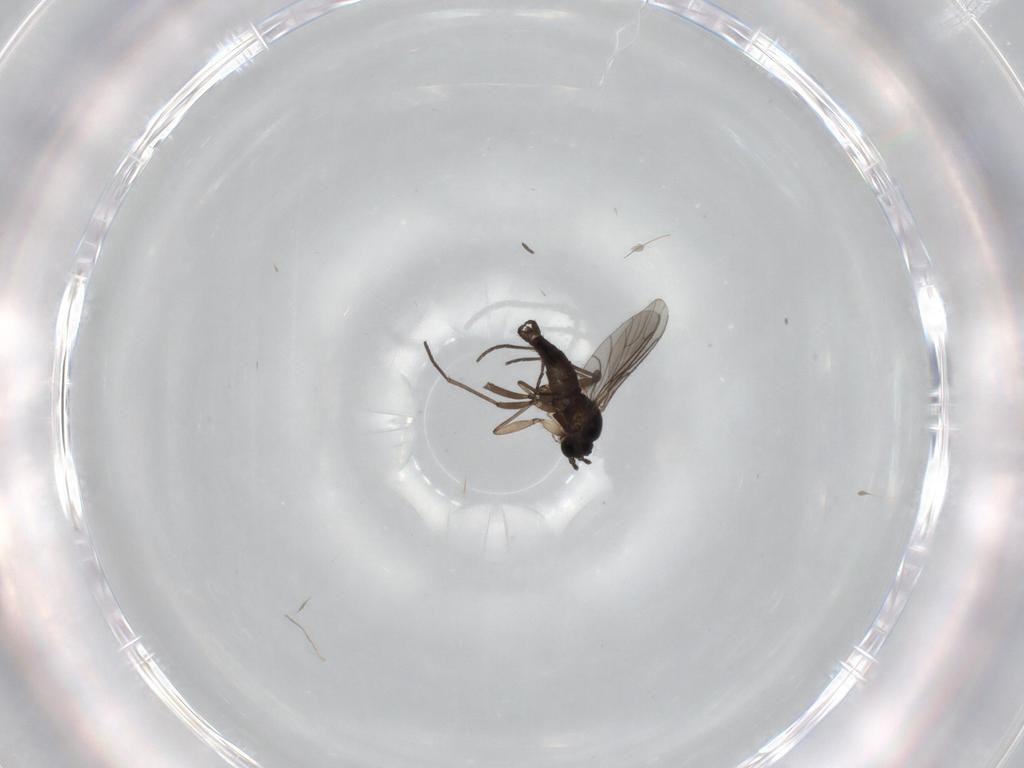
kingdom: Animalia
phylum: Arthropoda
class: Insecta
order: Diptera
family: Sciaridae
